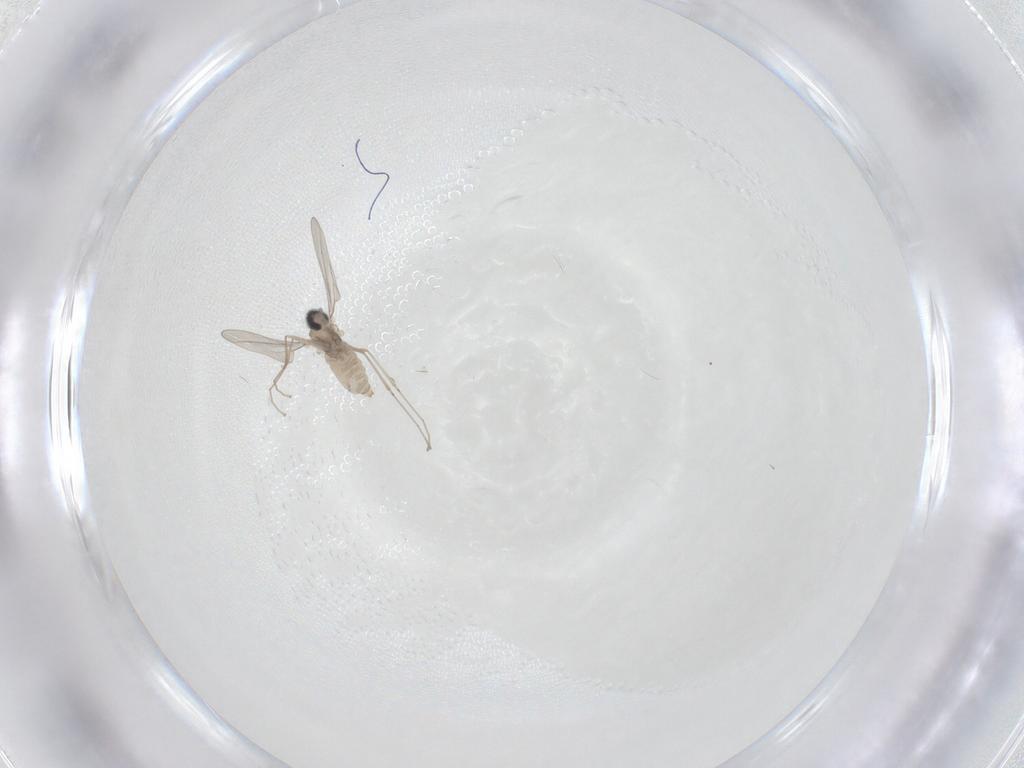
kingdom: Animalia
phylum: Arthropoda
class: Insecta
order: Diptera
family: Cecidomyiidae
